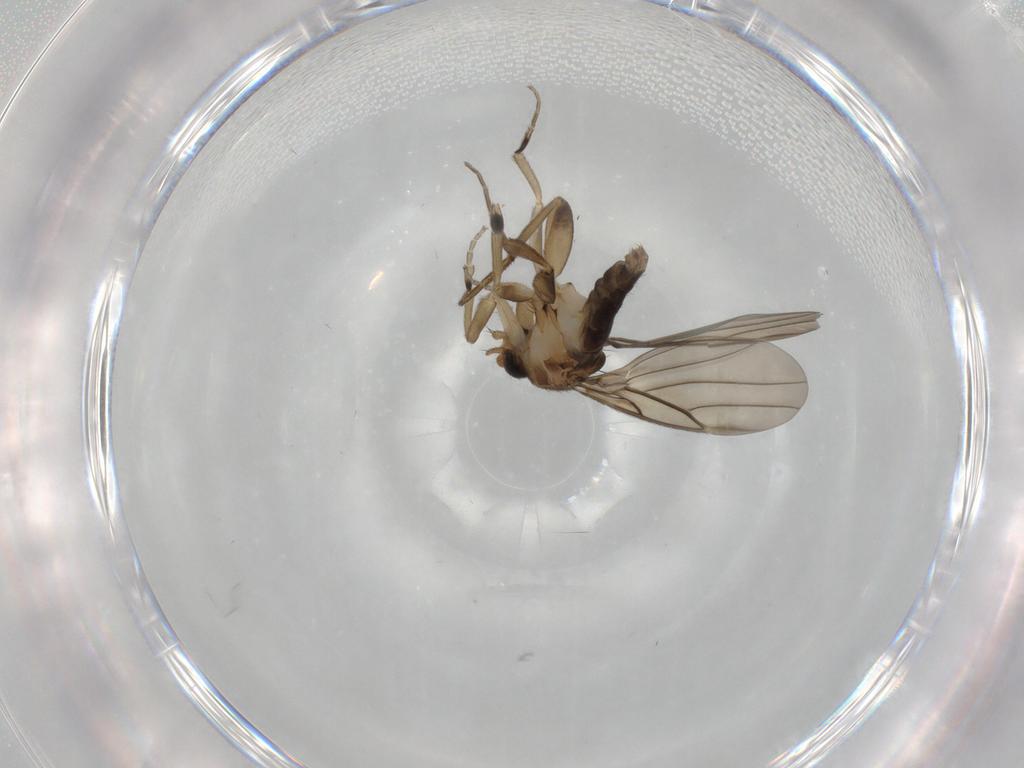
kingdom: Animalia
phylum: Arthropoda
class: Insecta
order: Diptera
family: Phoridae
